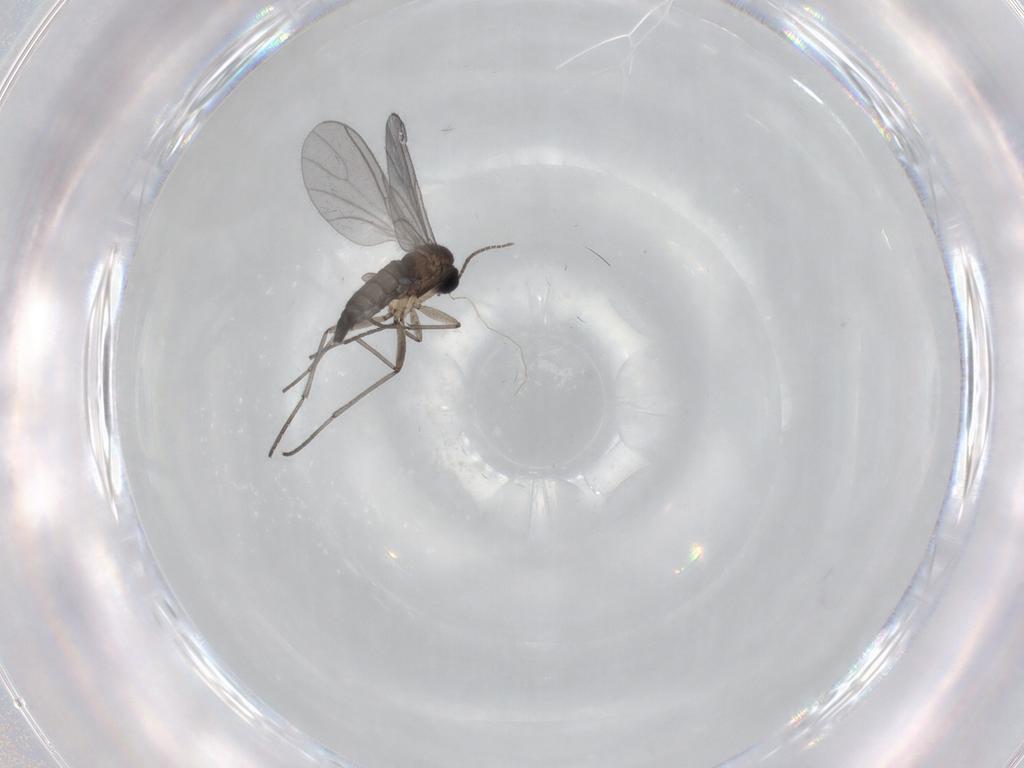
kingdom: Animalia
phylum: Arthropoda
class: Insecta
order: Diptera
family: Sciaridae
